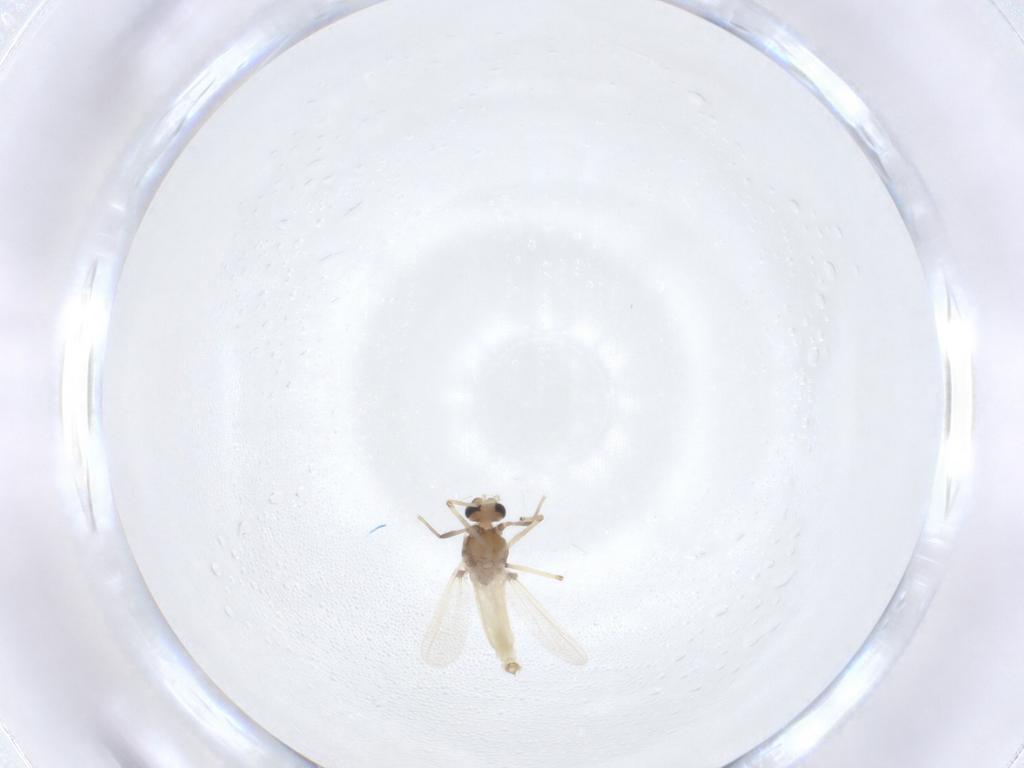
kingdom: Animalia
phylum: Arthropoda
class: Insecta
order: Diptera
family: Chironomidae
